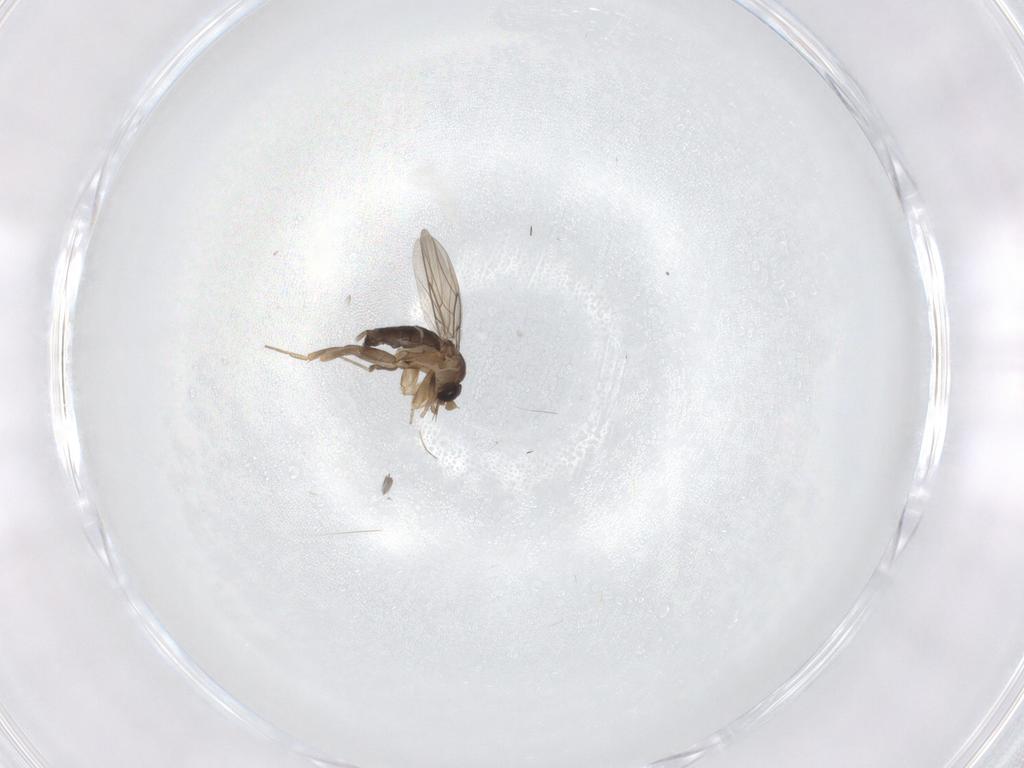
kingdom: Animalia
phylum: Arthropoda
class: Insecta
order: Diptera
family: Phoridae
